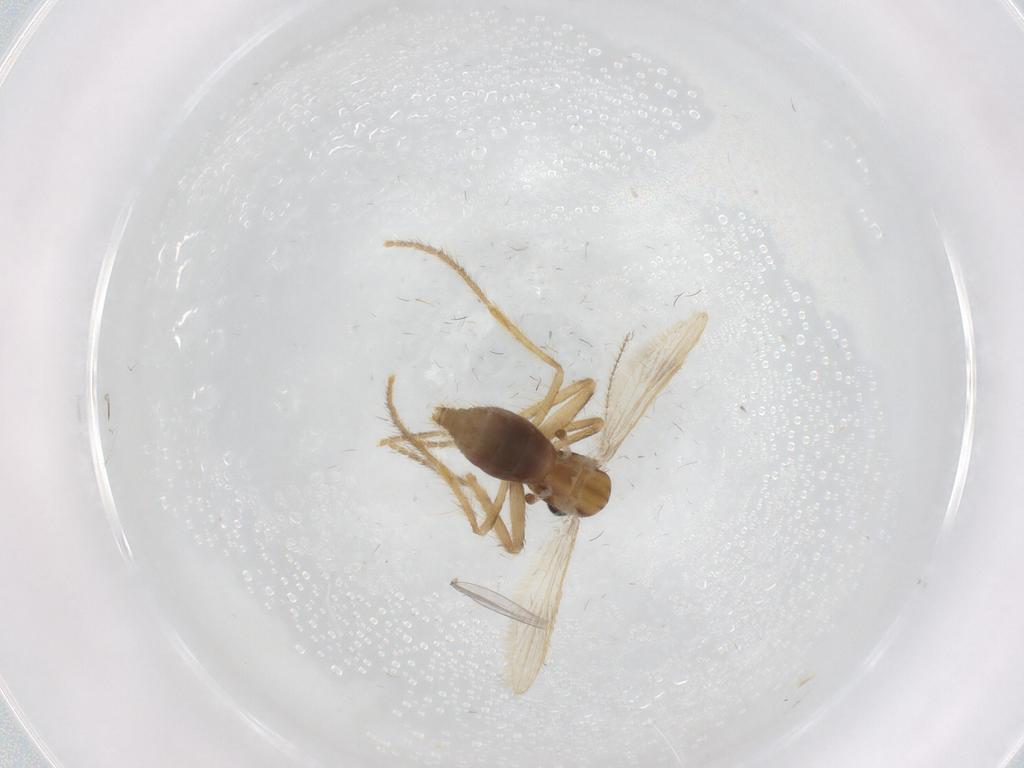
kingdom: Animalia
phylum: Arthropoda
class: Insecta
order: Diptera
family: Corethrellidae
